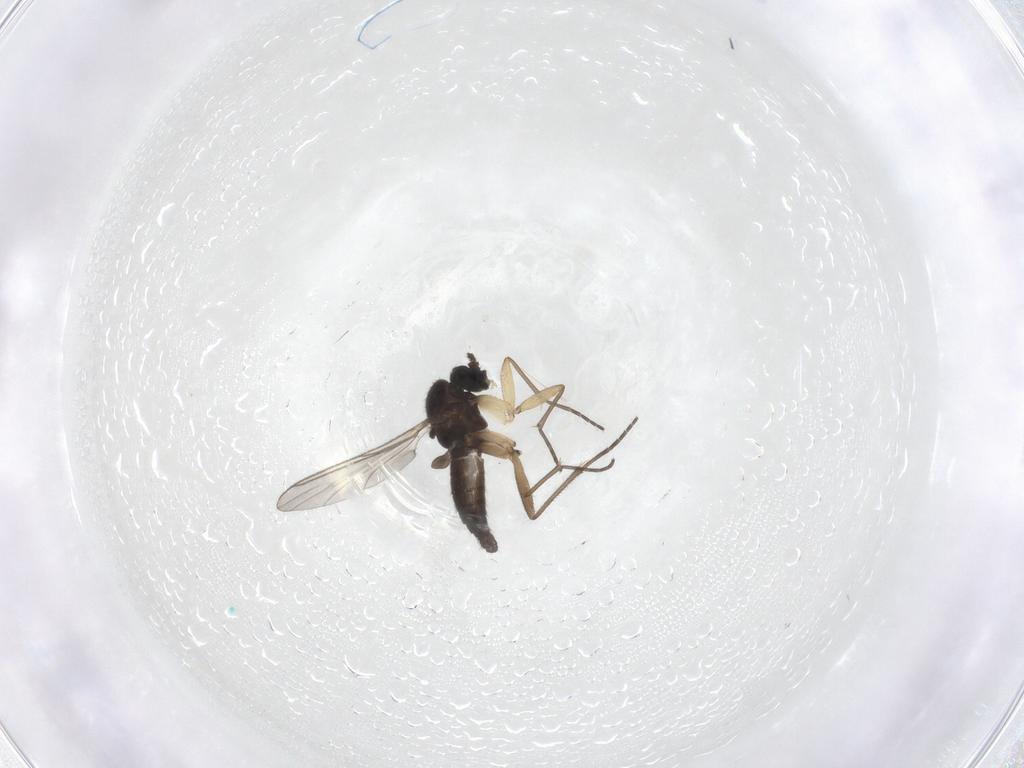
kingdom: Animalia
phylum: Arthropoda
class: Insecta
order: Diptera
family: Sciaridae
